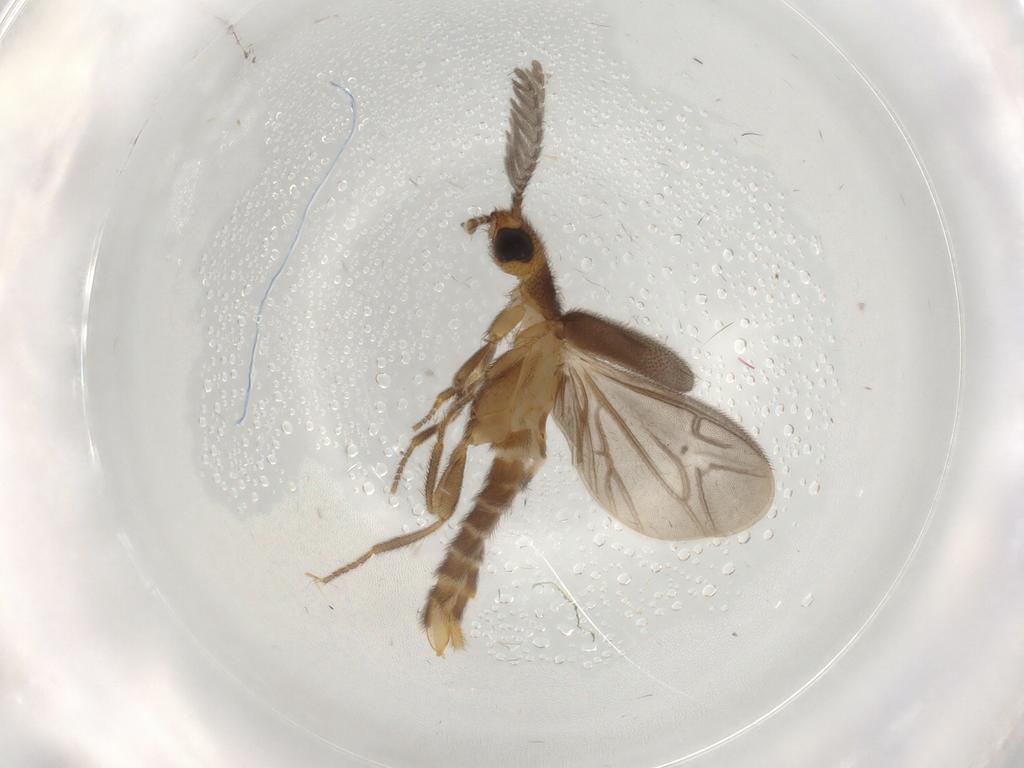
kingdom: Animalia
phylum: Arthropoda
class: Insecta
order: Coleoptera
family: Phengodidae
